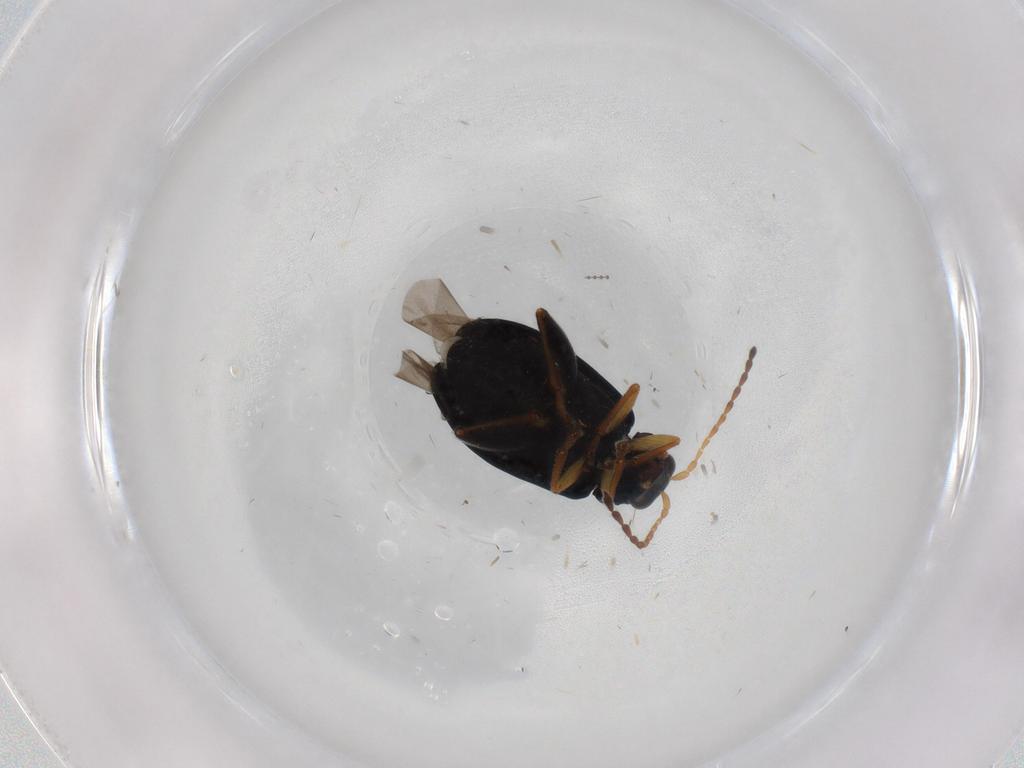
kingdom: Animalia
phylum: Arthropoda
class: Insecta
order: Coleoptera
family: Chrysomelidae
